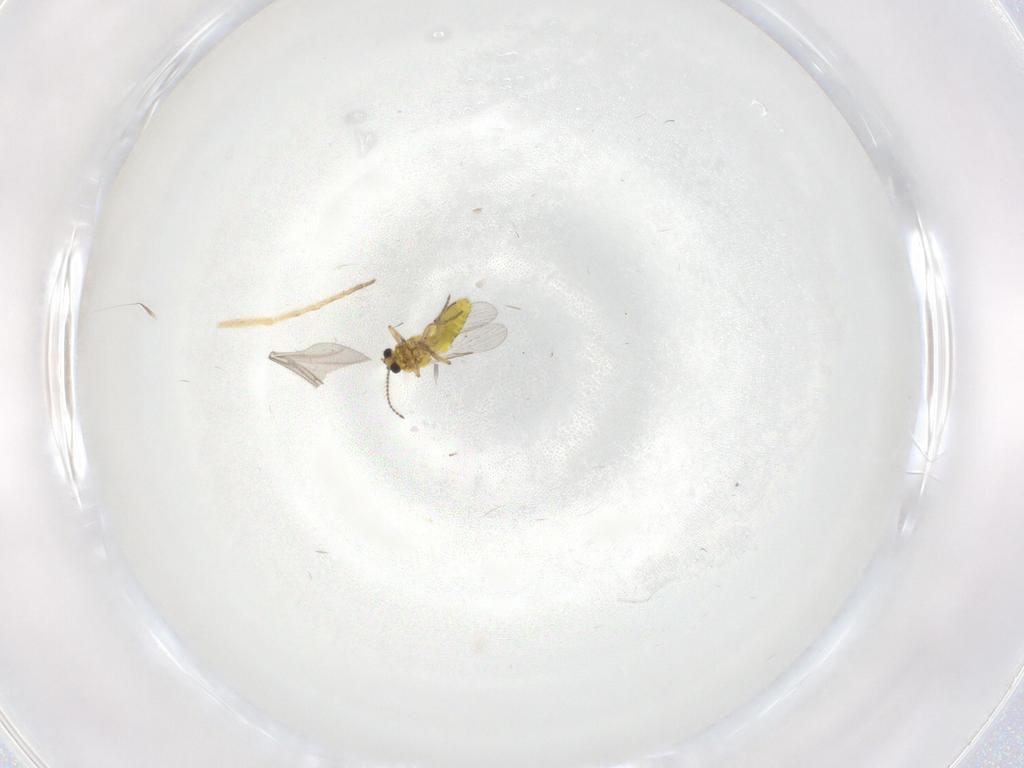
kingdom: Animalia
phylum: Arthropoda
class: Insecta
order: Diptera
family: Ceratopogonidae
